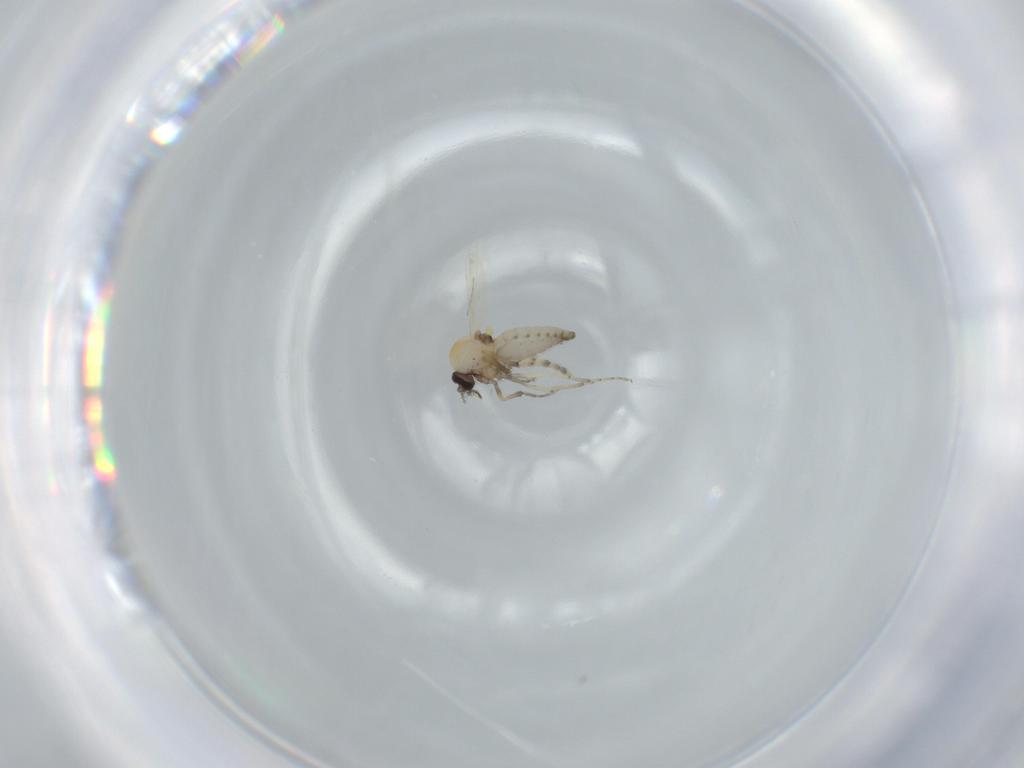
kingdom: Animalia
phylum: Arthropoda
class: Insecta
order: Diptera
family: Ceratopogonidae
